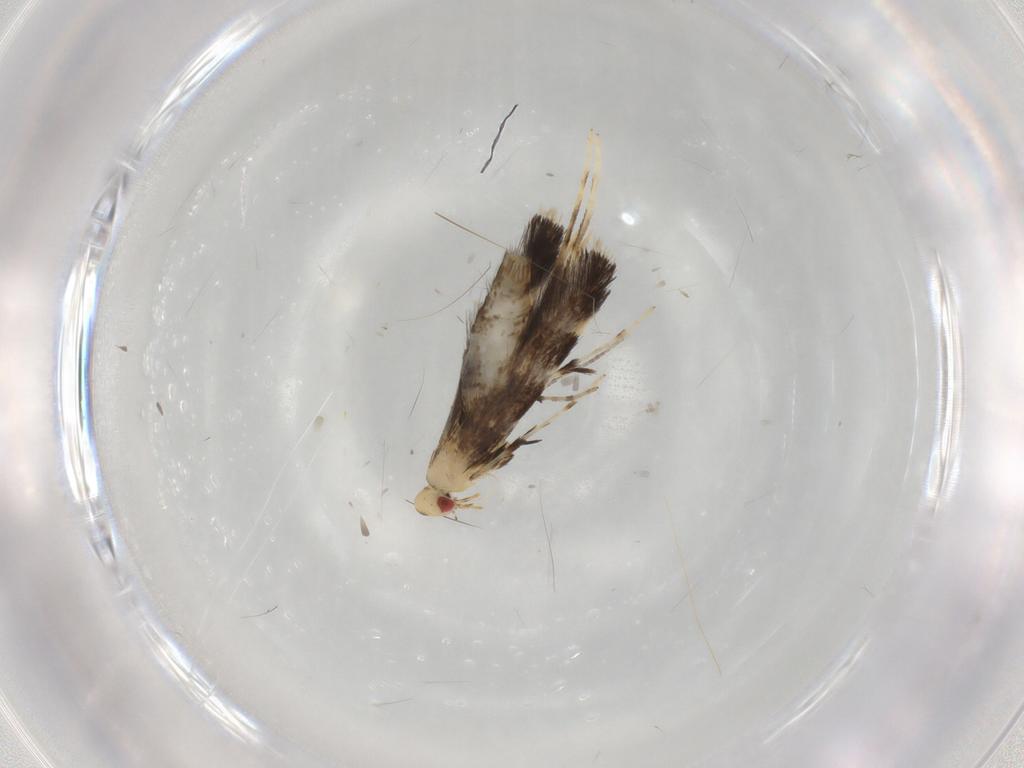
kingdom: Animalia
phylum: Arthropoda
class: Insecta
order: Lepidoptera
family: Gracillariidae
